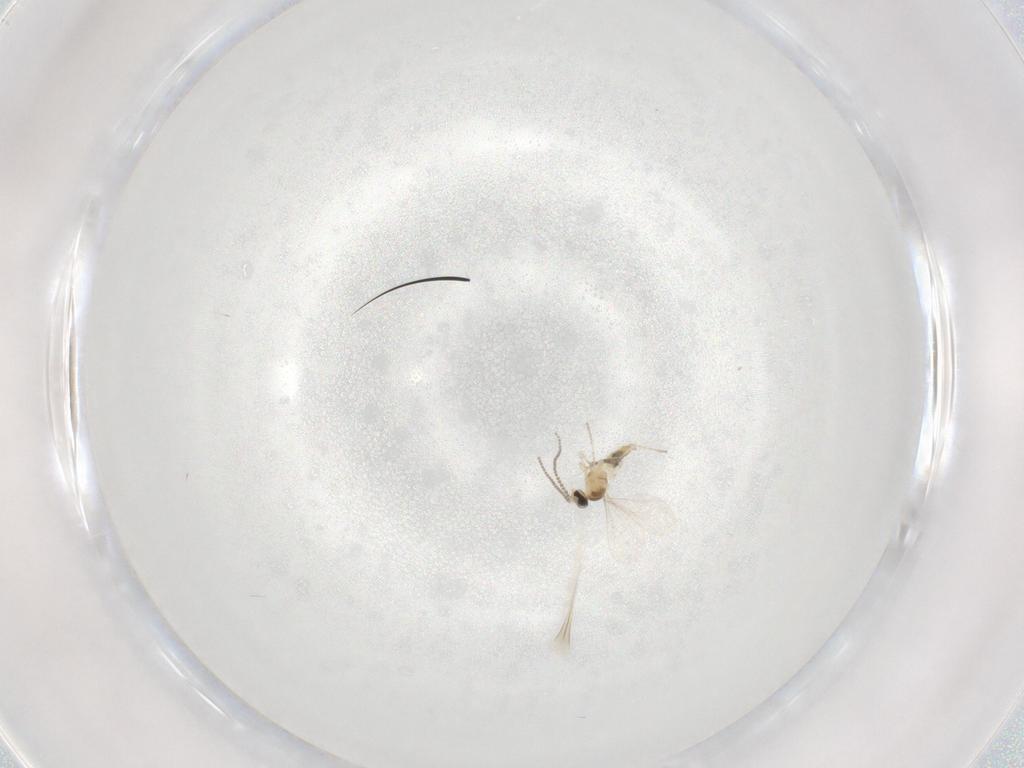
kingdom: Animalia
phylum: Arthropoda
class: Insecta
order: Diptera
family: Cecidomyiidae
